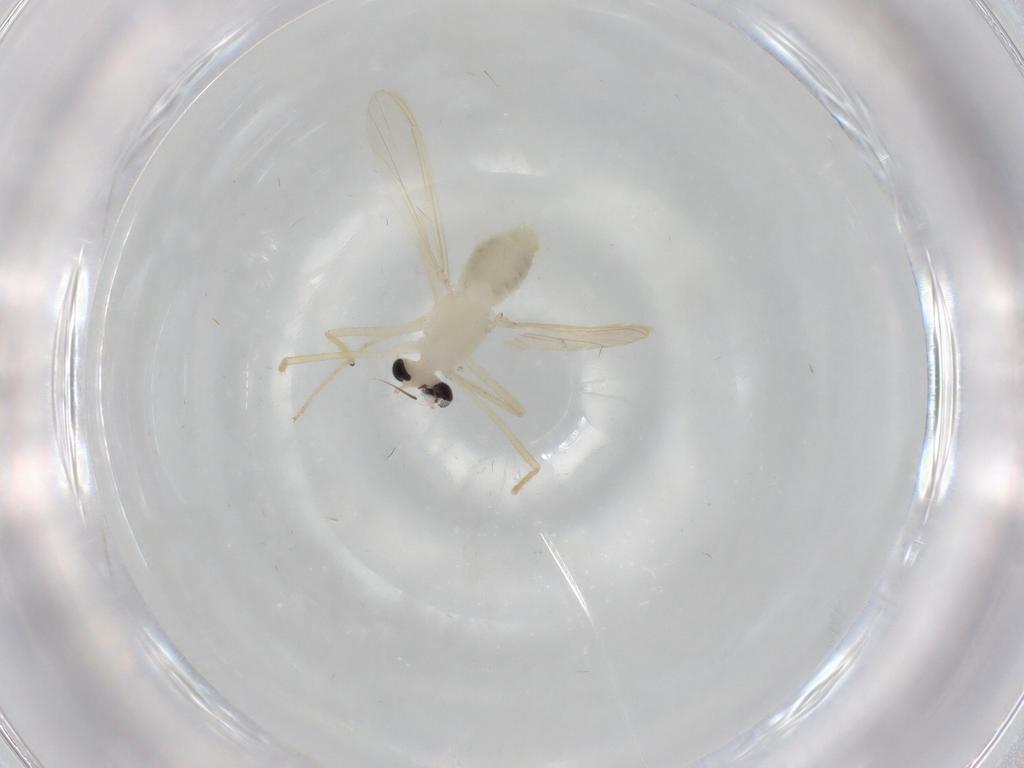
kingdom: Animalia
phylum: Arthropoda
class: Insecta
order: Diptera
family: Chironomidae
